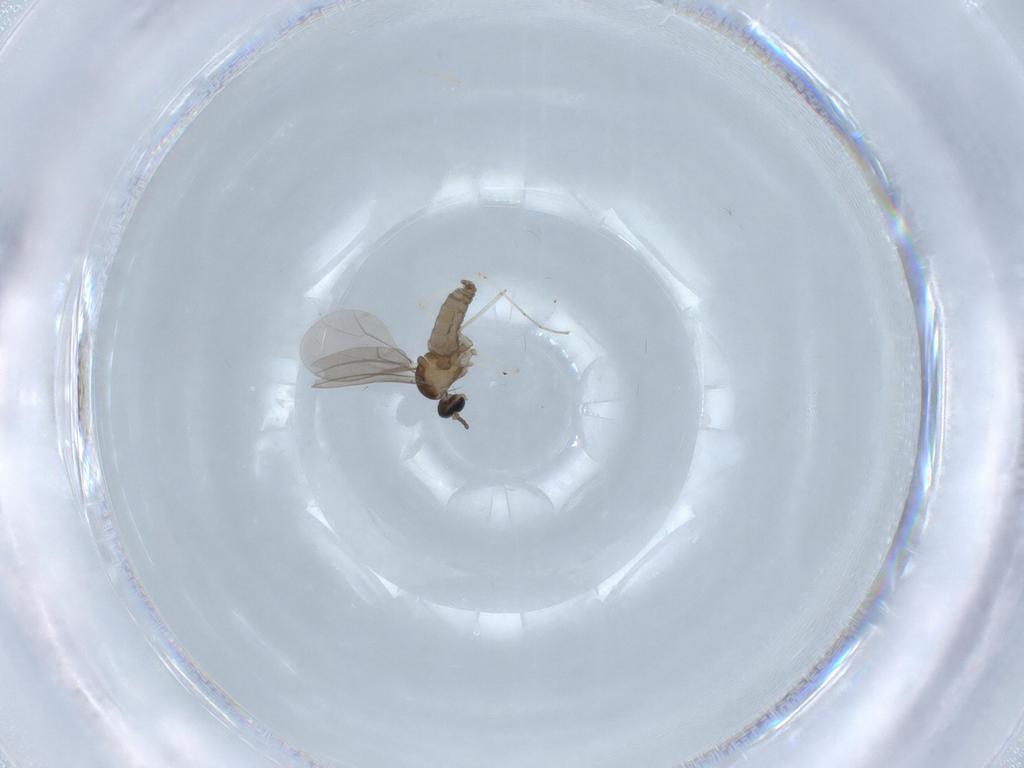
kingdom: Animalia
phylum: Arthropoda
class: Insecta
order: Diptera
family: Cecidomyiidae
